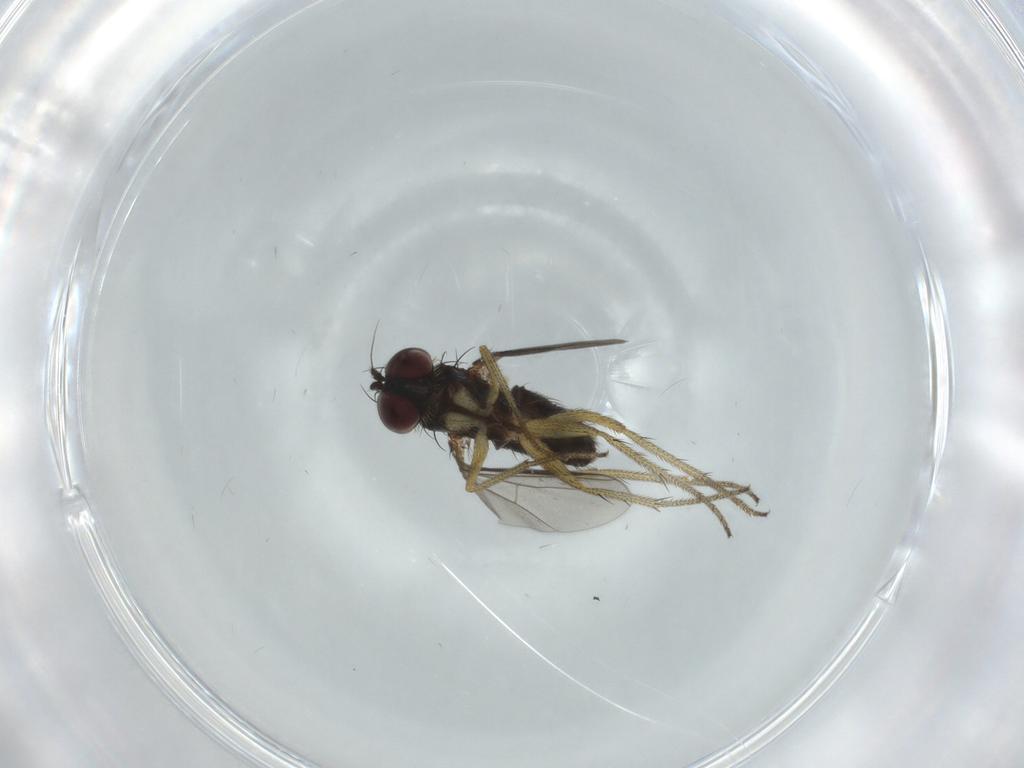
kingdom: Animalia
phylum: Arthropoda
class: Insecta
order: Diptera
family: Dolichopodidae
